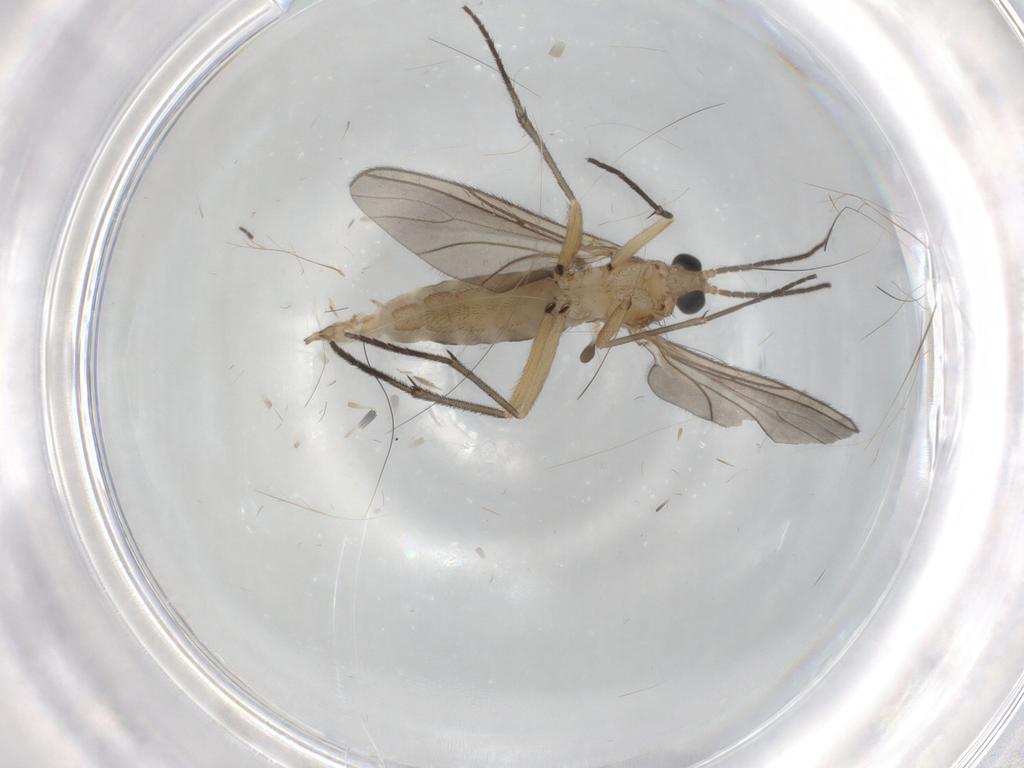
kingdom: Animalia
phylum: Arthropoda
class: Insecta
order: Diptera
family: Sciaridae
